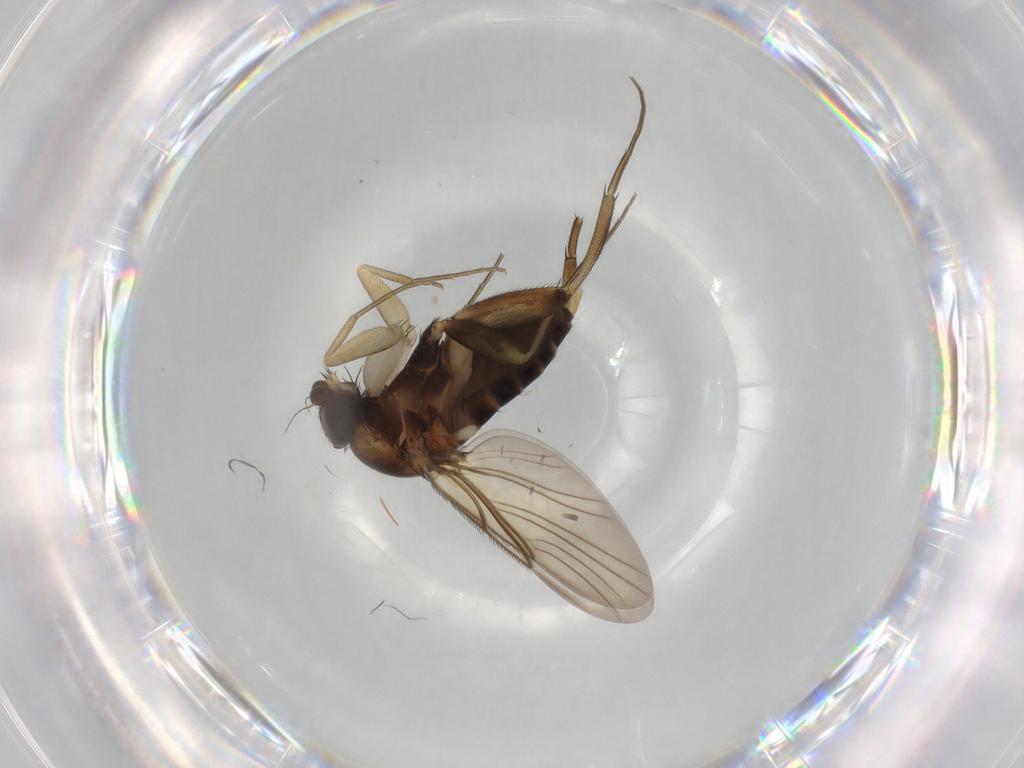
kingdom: Animalia
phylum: Arthropoda
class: Insecta
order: Diptera
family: Phoridae
